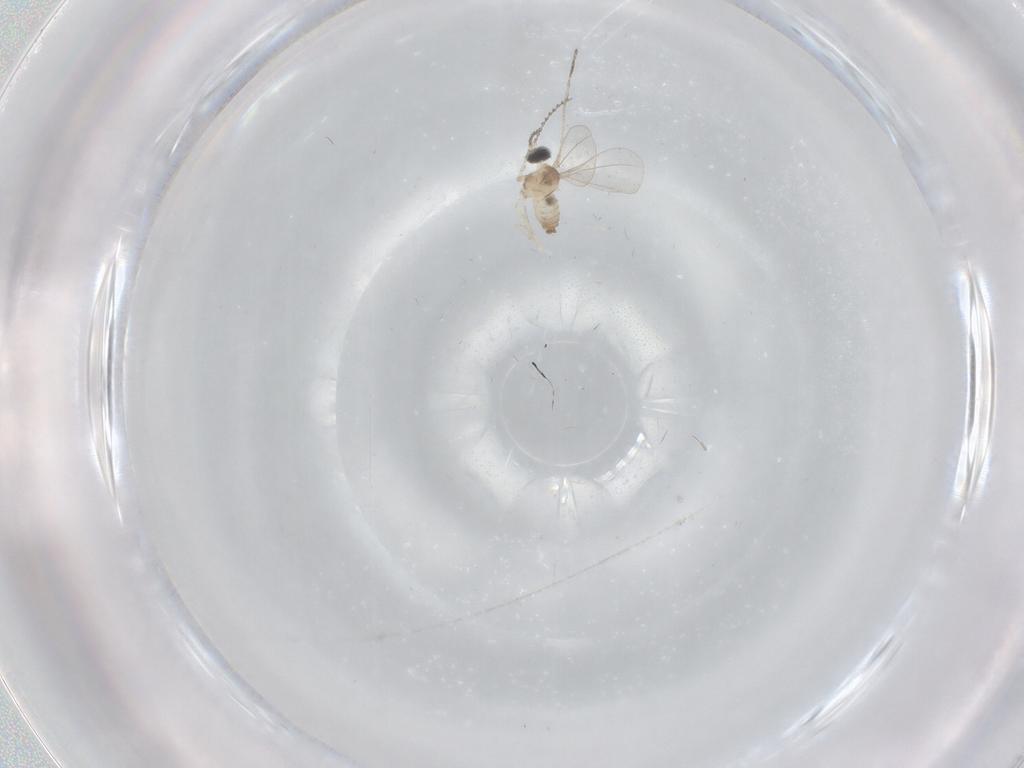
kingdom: Animalia
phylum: Arthropoda
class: Insecta
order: Diptera
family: Cecidomyiidae
